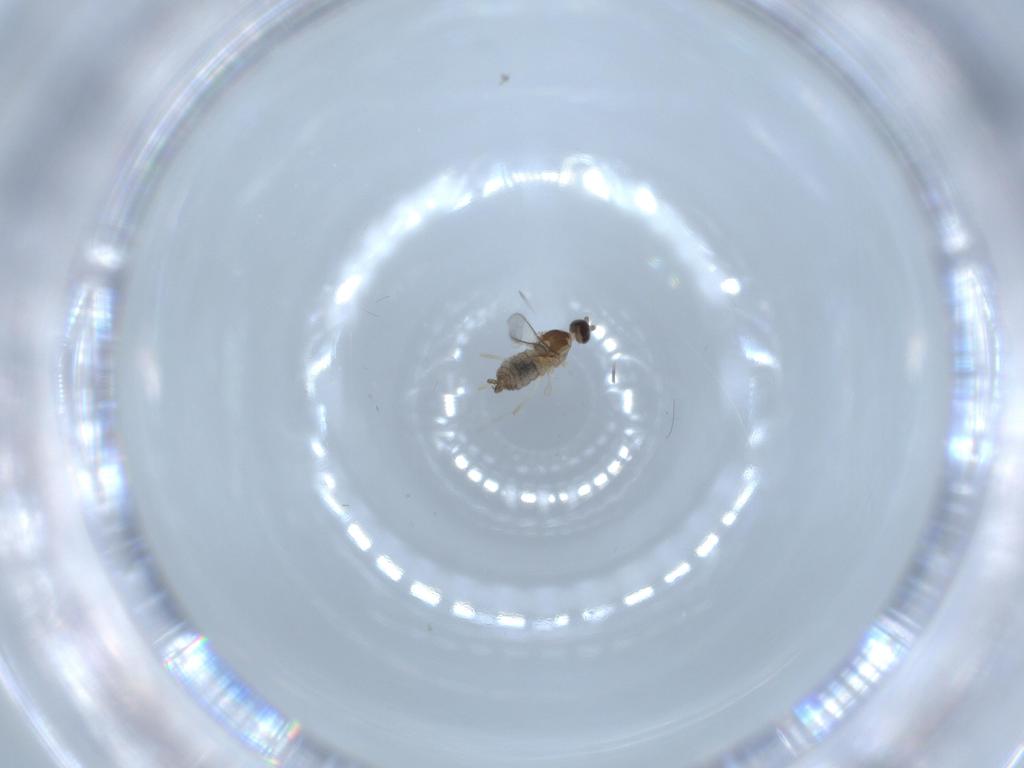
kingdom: Animalia
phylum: Arthropoda
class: Insecta
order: Diptera
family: Cecidomyiidae
